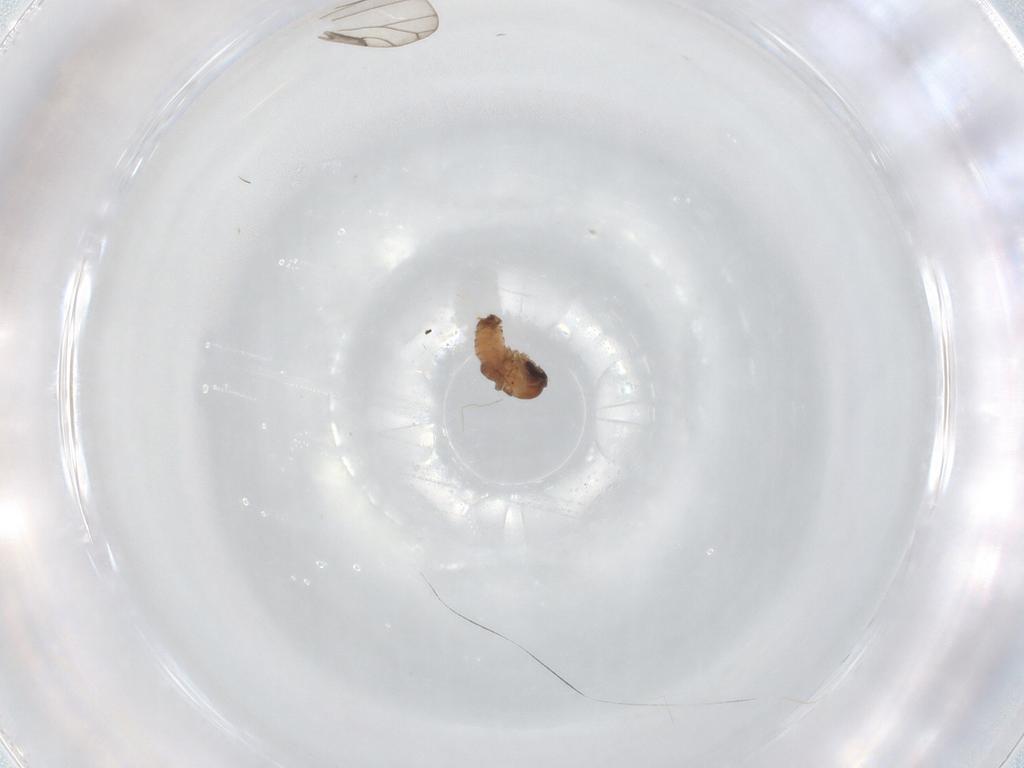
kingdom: Animalia
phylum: Arthropoda
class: Insecta
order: Diptera
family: Psychodidae
